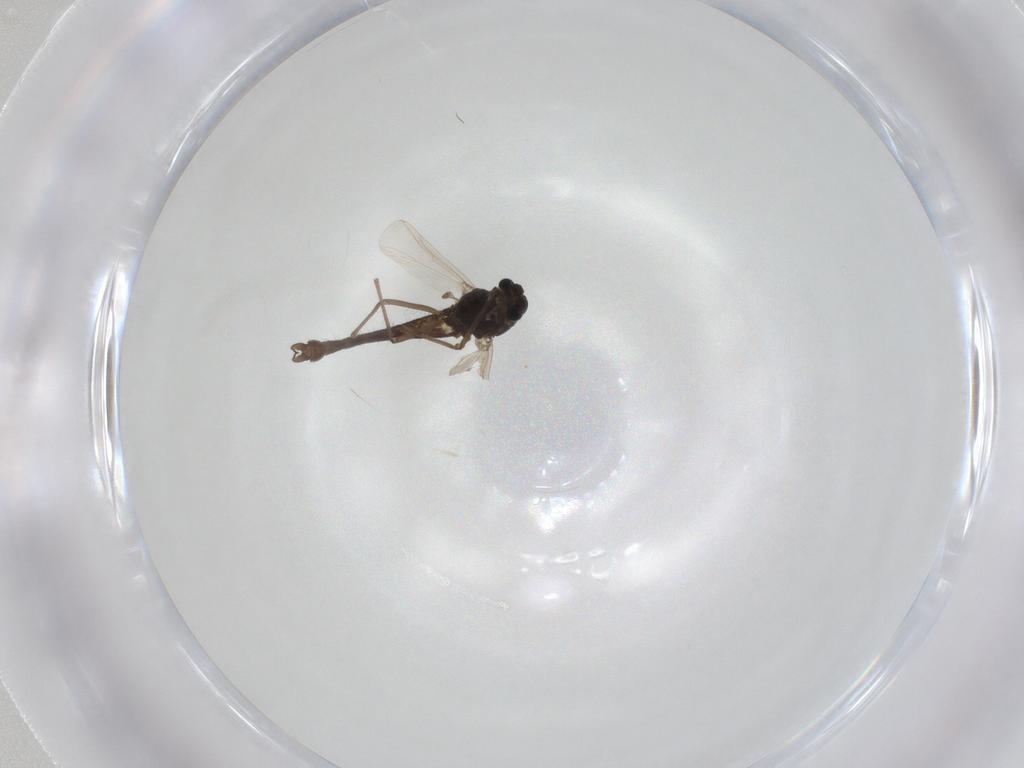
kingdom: Animalia
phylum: Arthropoda
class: Insecta
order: Diptera
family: Chironomidae
